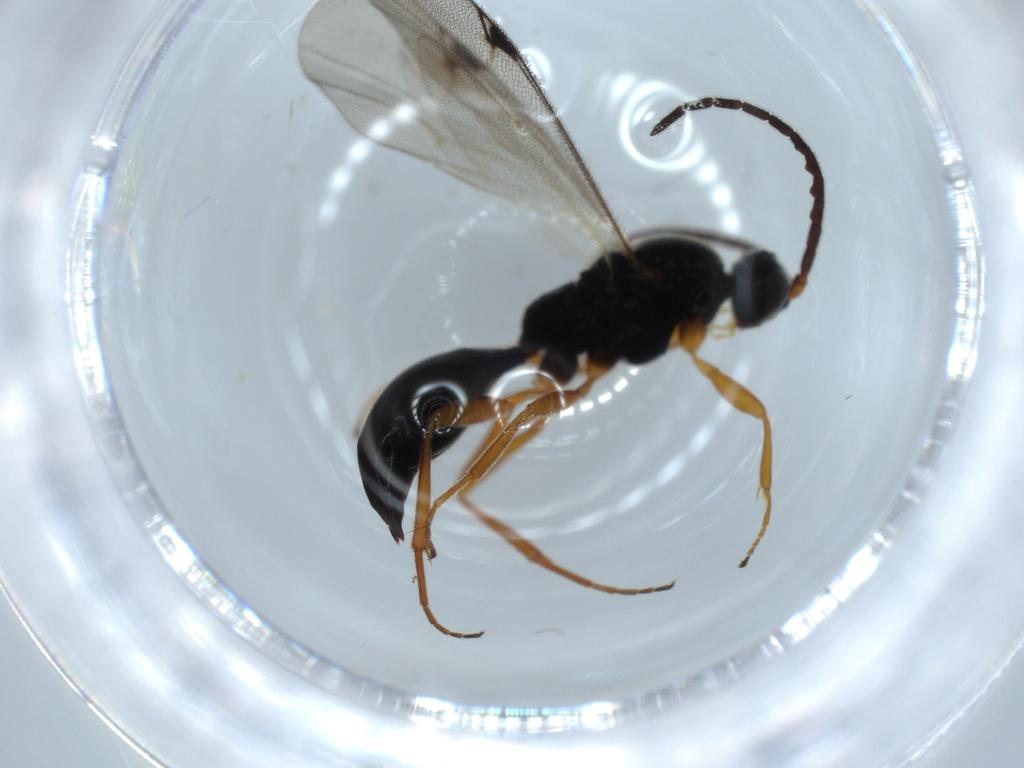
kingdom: Animalia
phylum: Arthropoda
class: Insecta
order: Hymenoptera
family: Proctotrupidae
